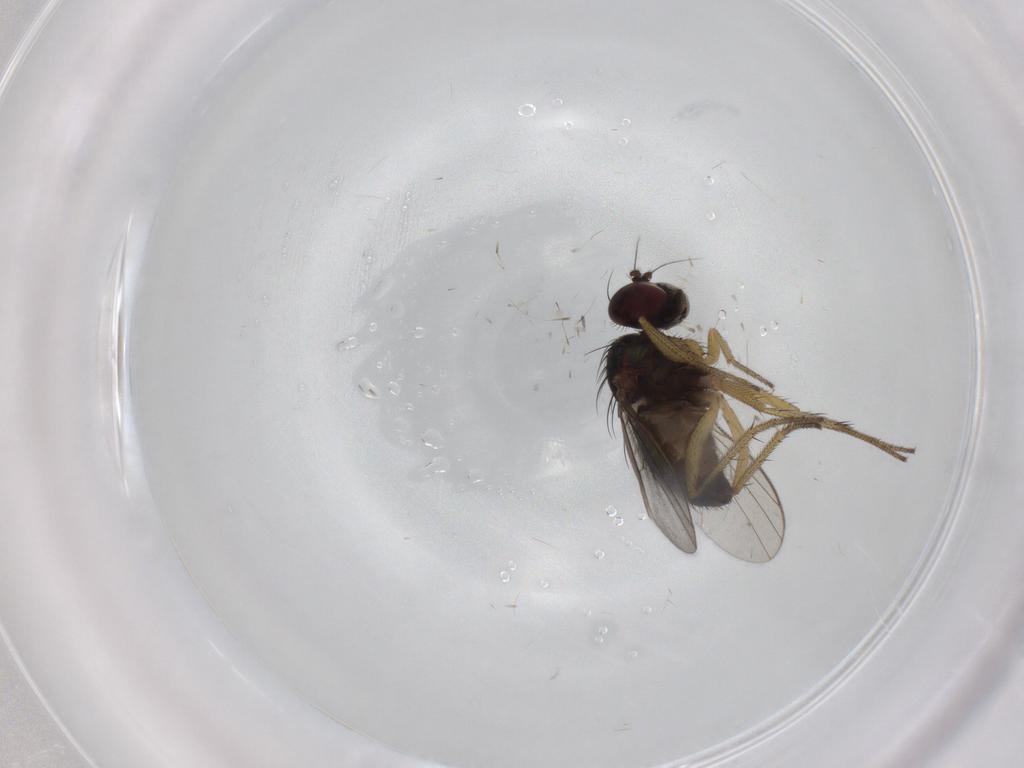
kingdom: Animalia
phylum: Arthropoda
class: Insecta
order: Diptera
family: Dolichopodidae
